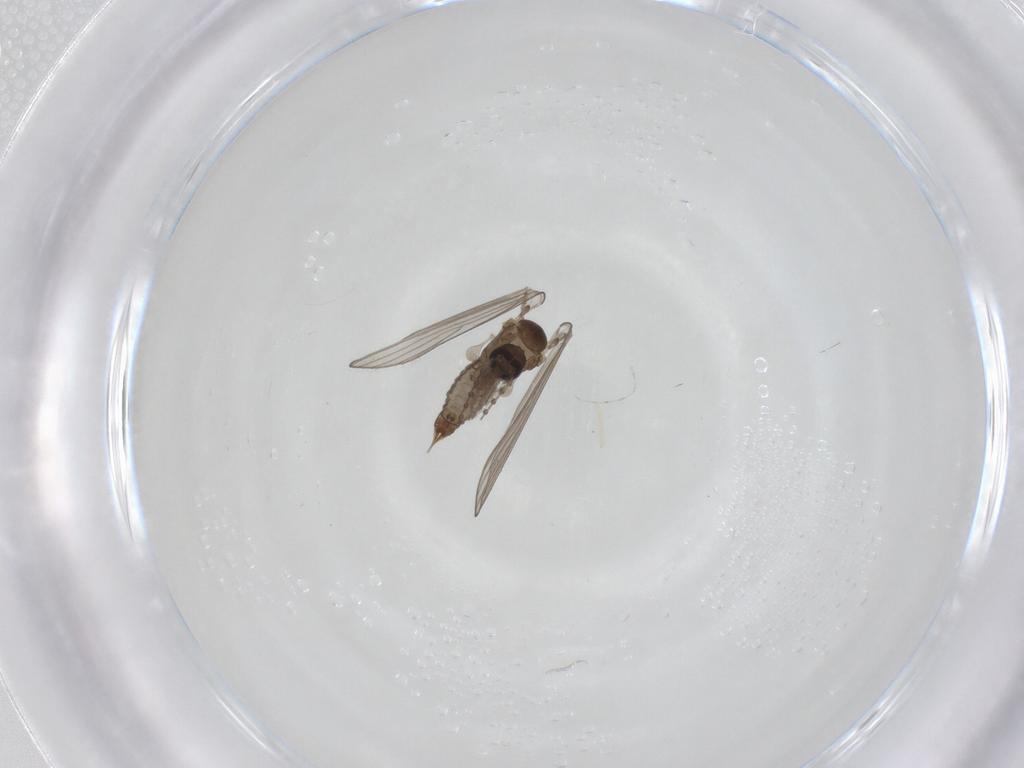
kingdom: Animalia
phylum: Arthropoda
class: Insecta
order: Diptera
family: Psychodidae
